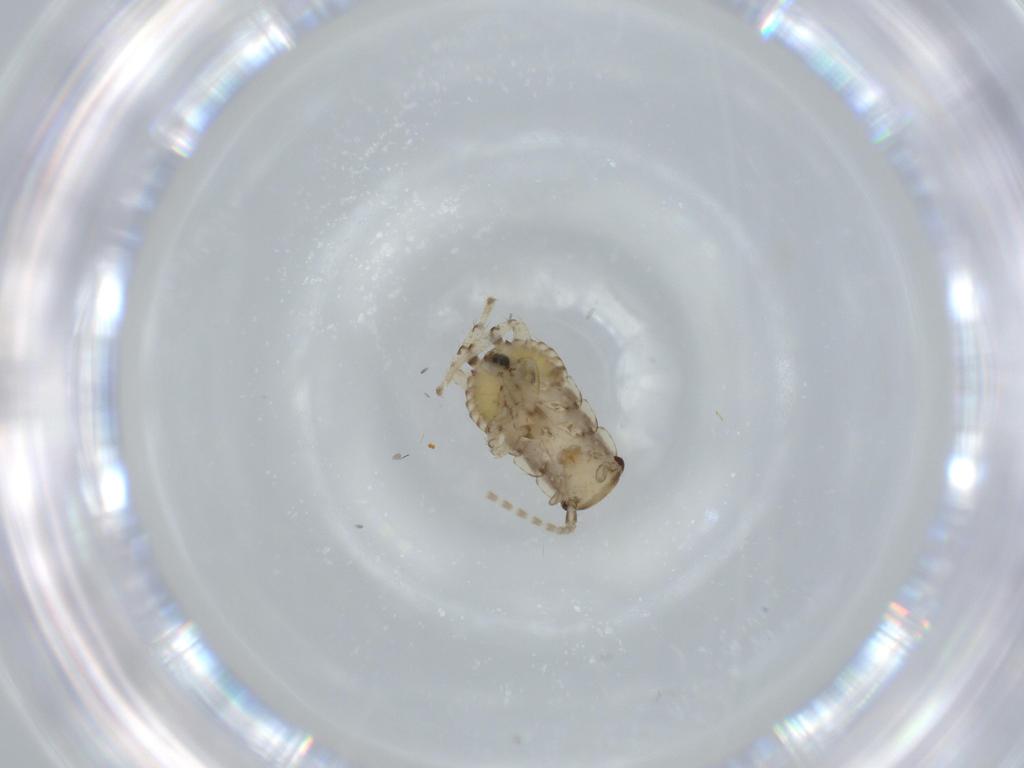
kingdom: Animalia
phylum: Arthropoda
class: Insecta
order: Blattodea
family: Ectobiidae
